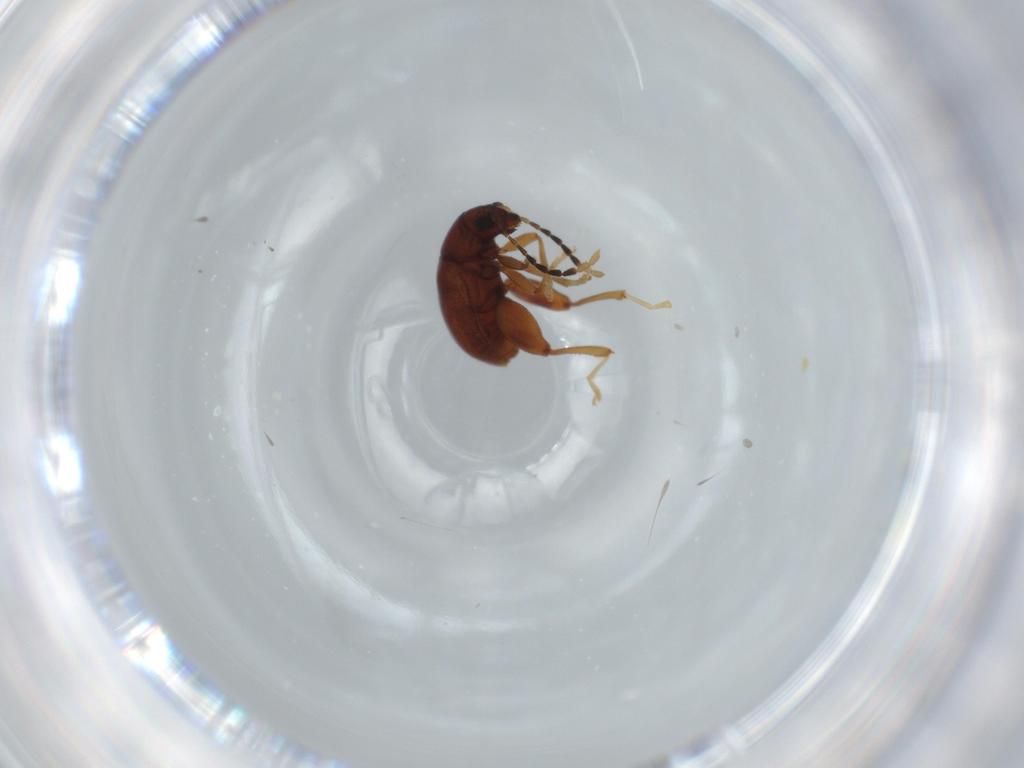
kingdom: Animalia
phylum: Arthropoda
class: Insecta
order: Coleoptera
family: Chrysomelidae
